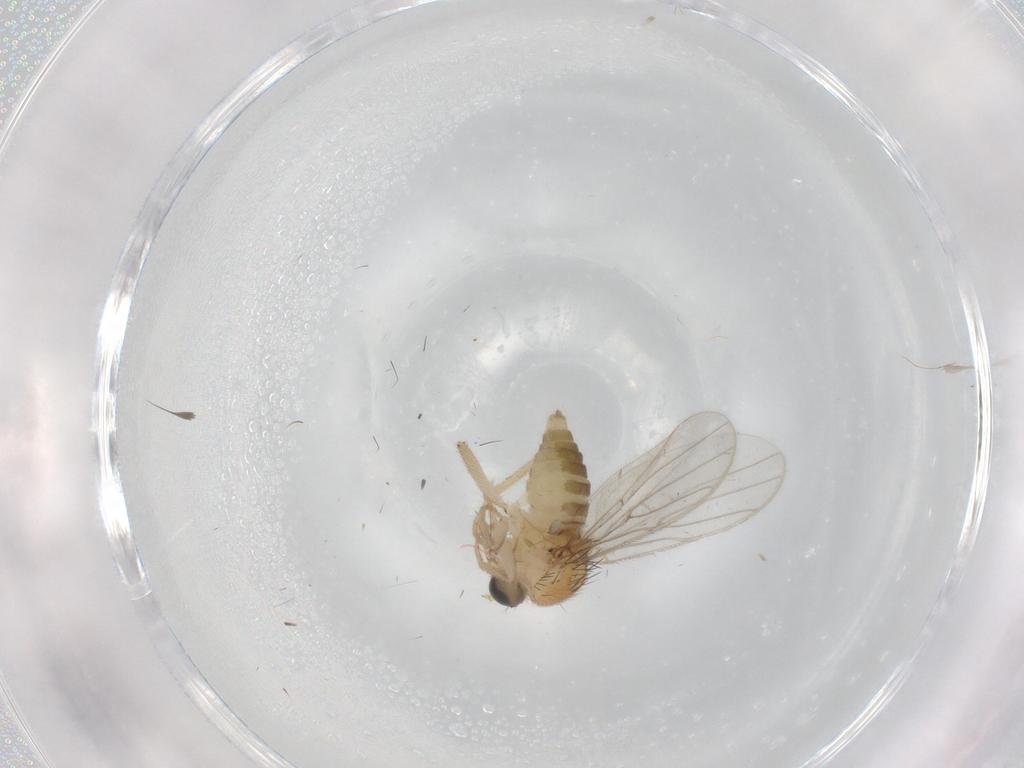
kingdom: Animalia
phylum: Arthropoda
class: Insecta
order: Diptera
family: Hybotidae
